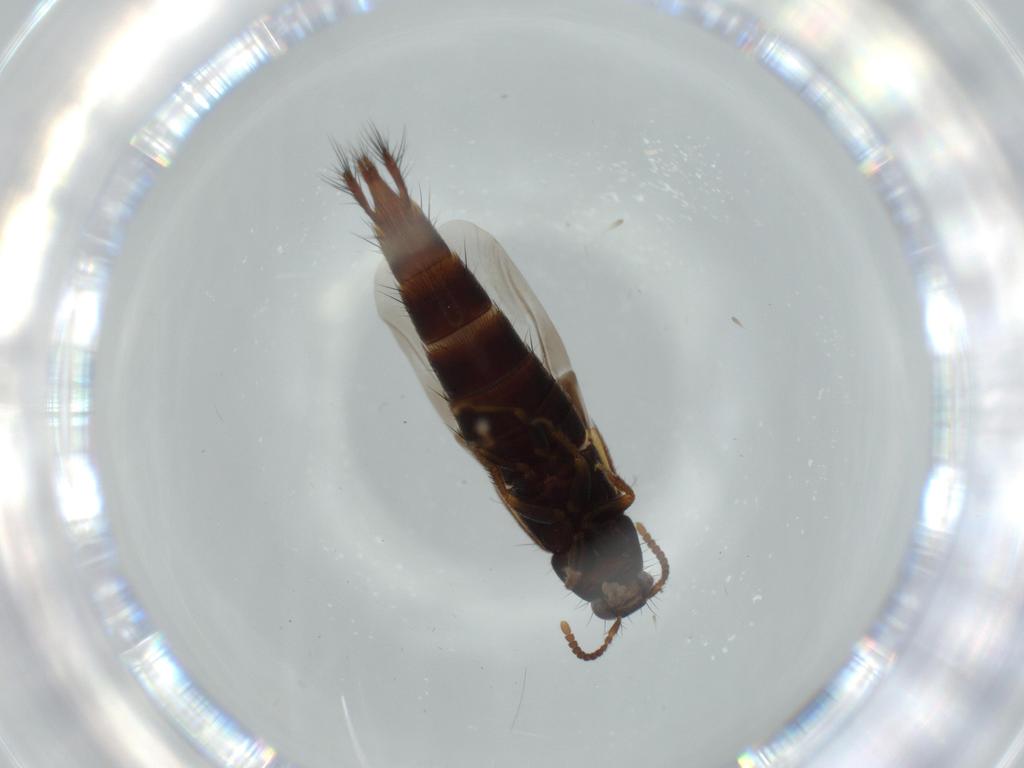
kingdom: Animalia
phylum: Arthropoda
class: Insecta
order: Coleoptera
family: Staphylinidae
